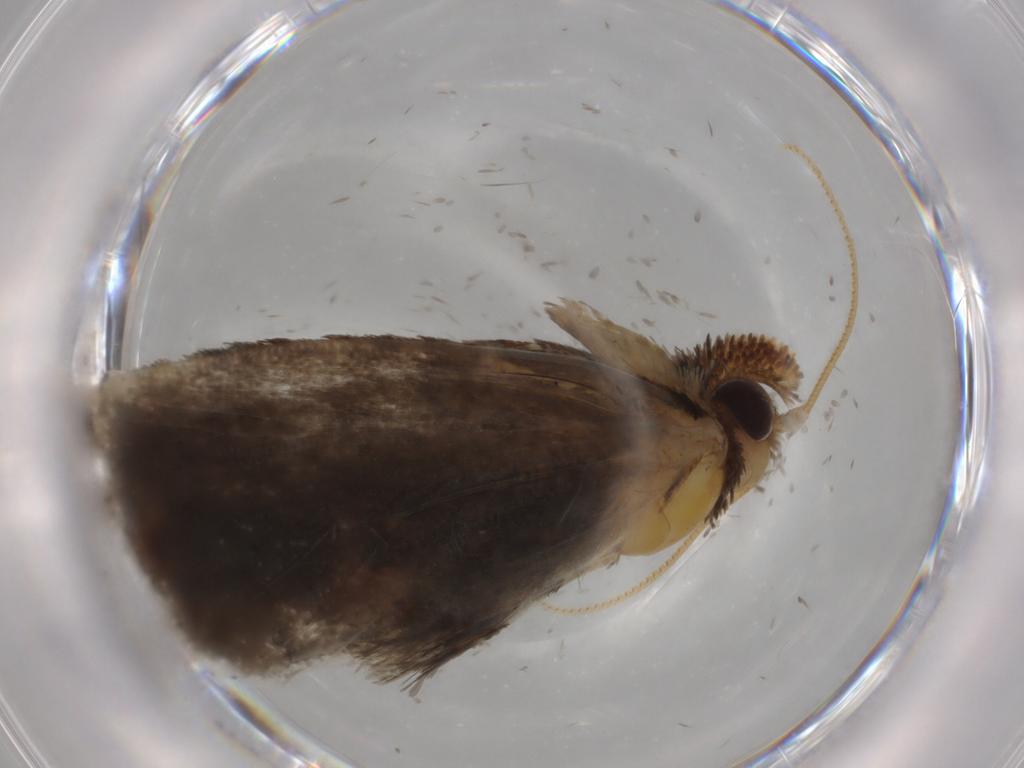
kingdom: Animalia
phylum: Arthropoda
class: Insecta
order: Lepidoptera
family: Tineidae
